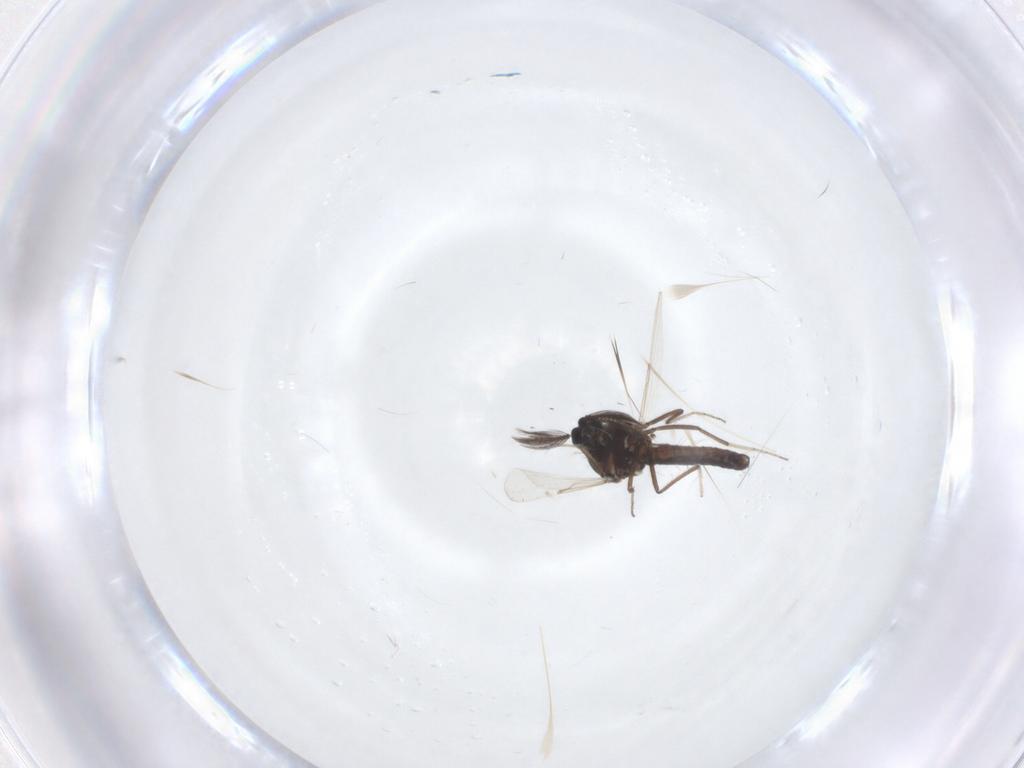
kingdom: Animalia
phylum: Arthropoda
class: Insecta
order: Diptera
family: Ceratopogonidae
